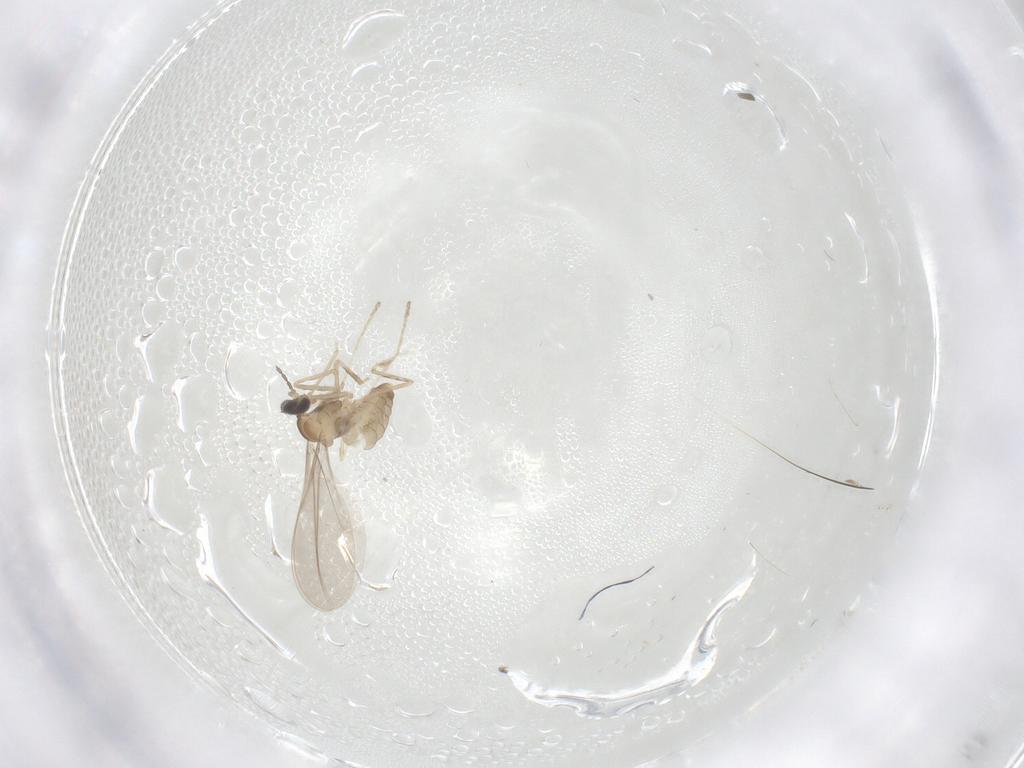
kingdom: Animalia
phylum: Arthropoda
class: Insecta
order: Diptera
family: Cecidomyiidae
